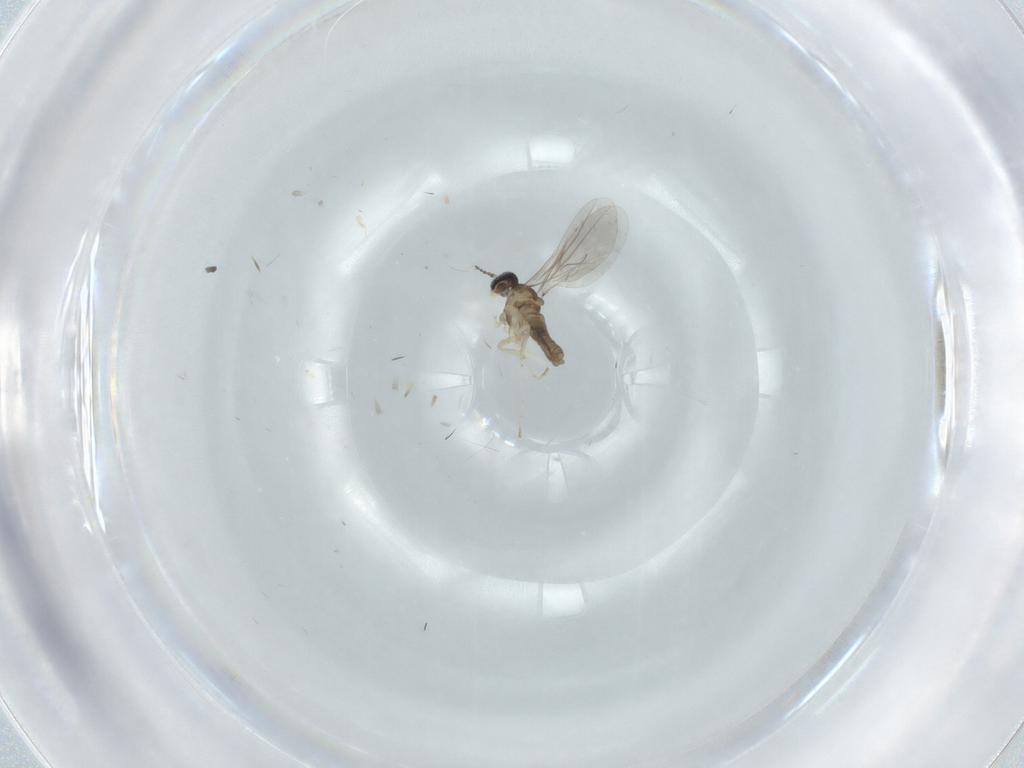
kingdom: Animalia
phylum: Arthropoda
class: Insecta
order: Diptera
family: Cecidomyiidae
